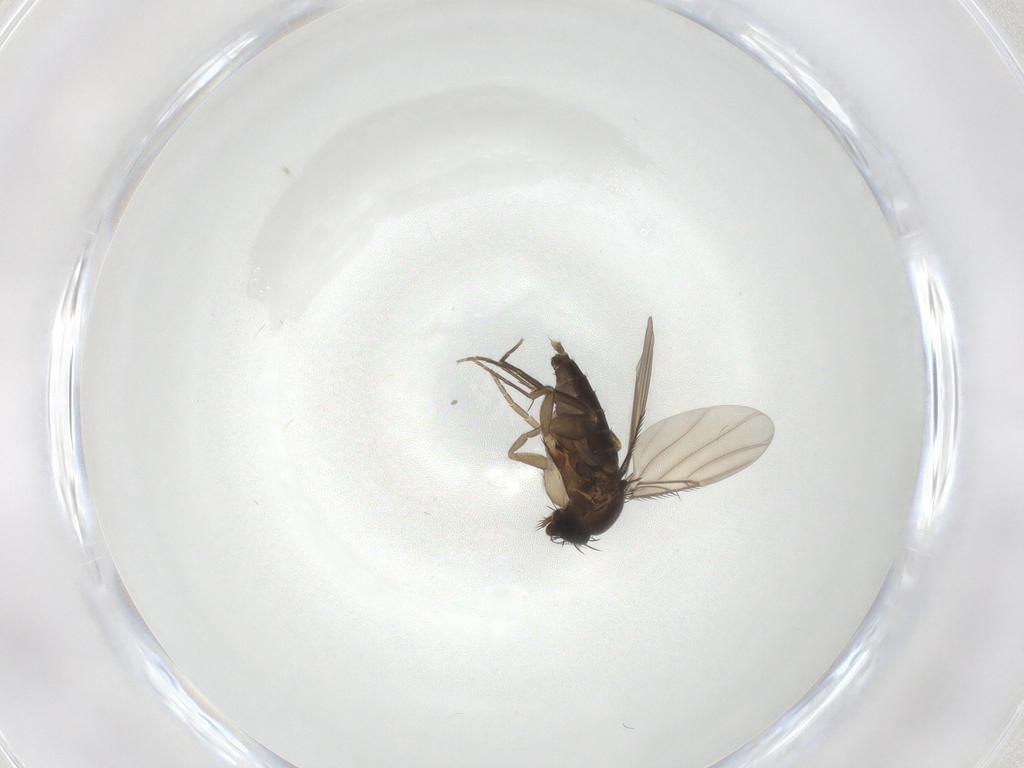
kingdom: Animalia
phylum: Arthropoda
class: Insecta
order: Diptera
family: Phoridae
